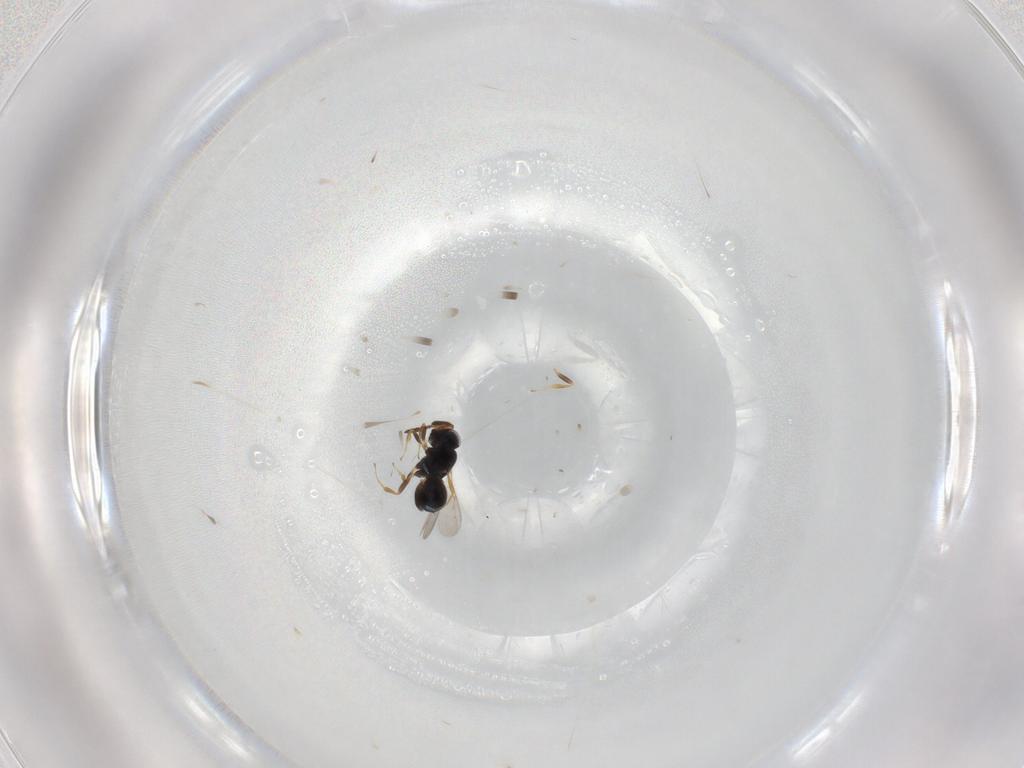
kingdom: Animalia
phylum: Arthropoda
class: Insecta
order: Hymenoptera
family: Scelionidae
